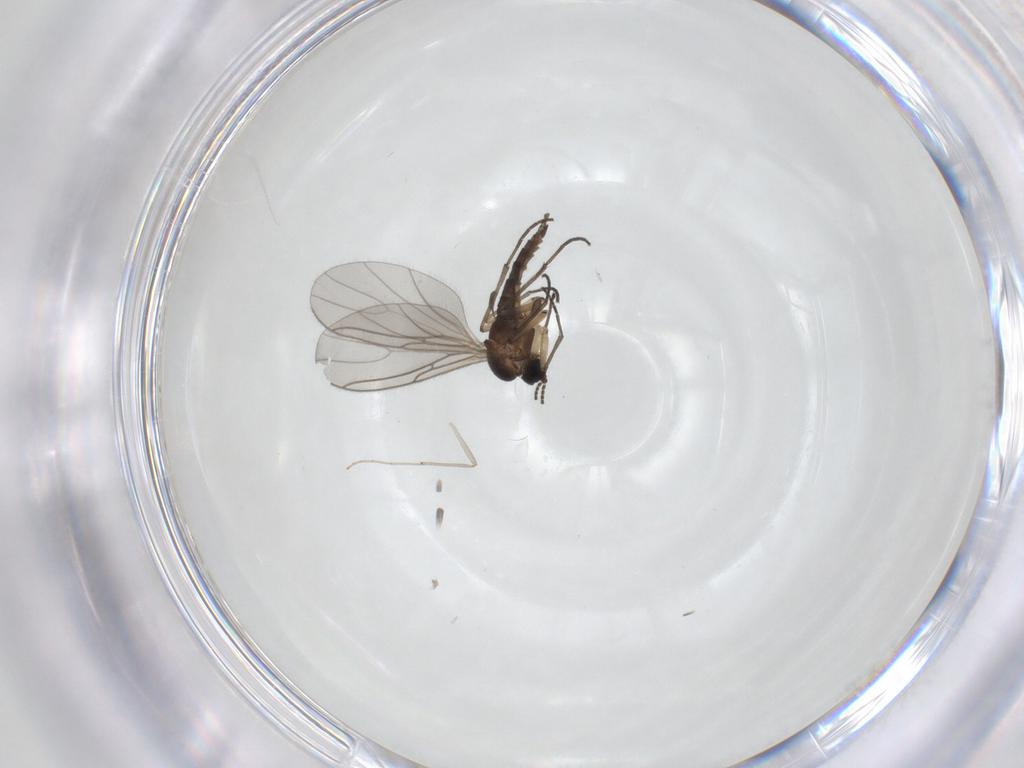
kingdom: Animalia
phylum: Arthropoda
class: Insecta
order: Diptera
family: Sciaridae
